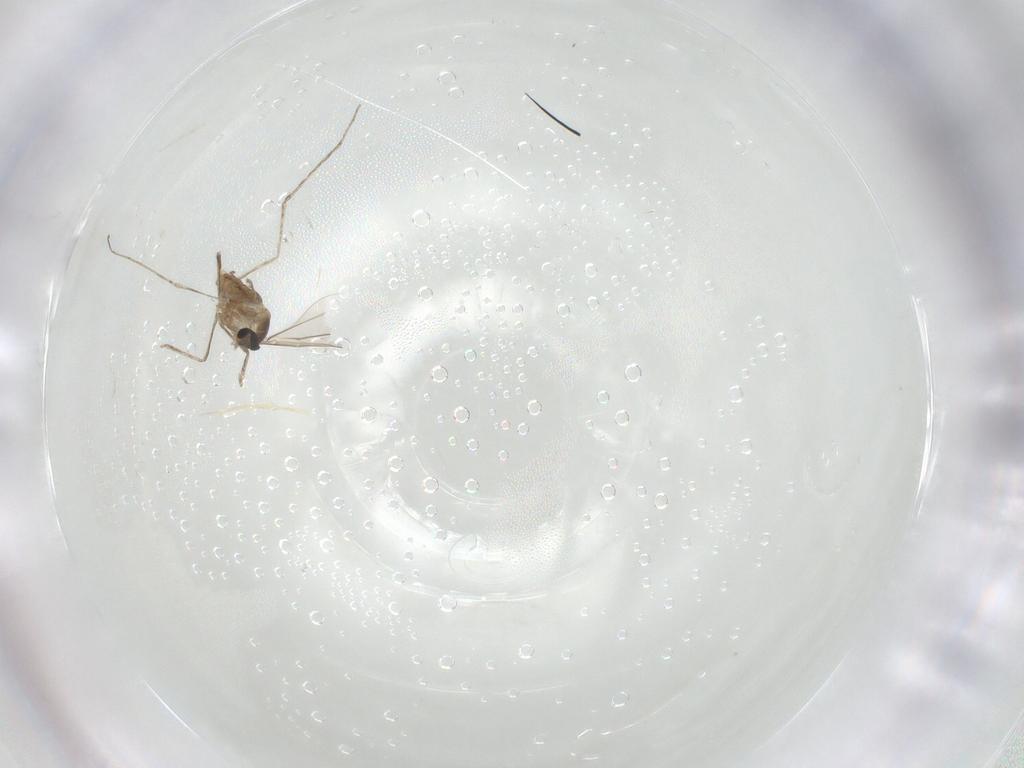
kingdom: Animalia
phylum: Arthropoda
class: Insecta
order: Diptera
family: Cecidomyiidae
